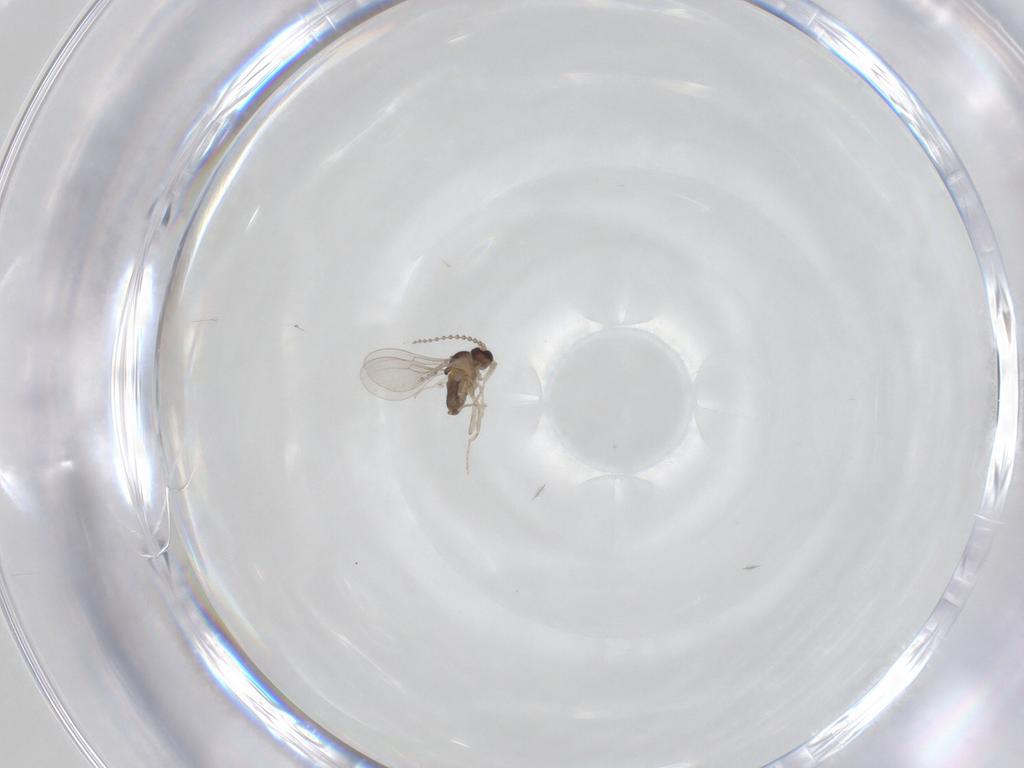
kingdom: Animalia
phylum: Arthropoda
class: Insecta
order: Diptera
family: Cecidomyiidae
